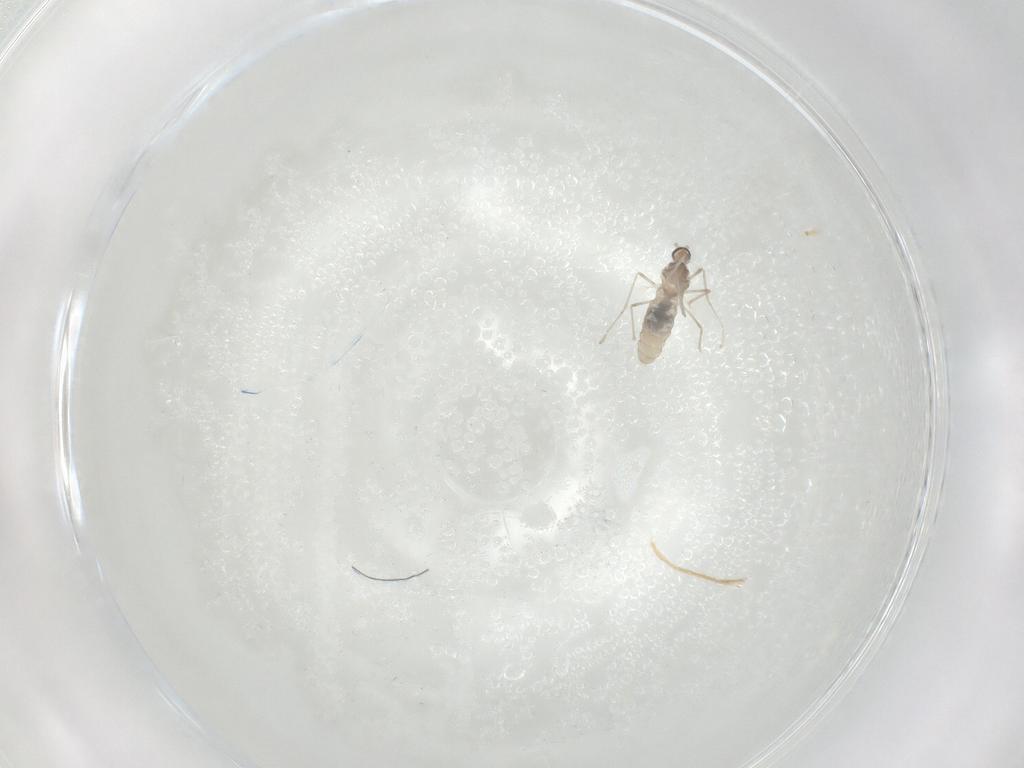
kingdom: Animalia
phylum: Arthropoda
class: Insecta
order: Diptera
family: Cecidomyiidae
